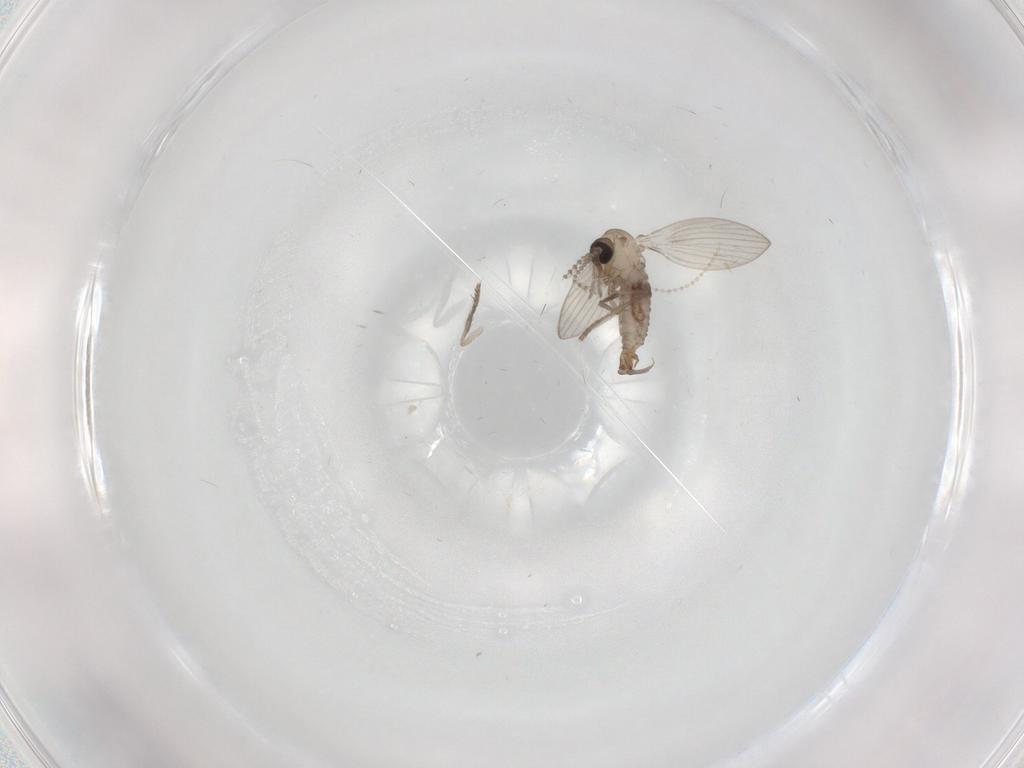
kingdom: Animalia
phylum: Arthropoda
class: Insecta
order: Diptera
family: Psychodidae
